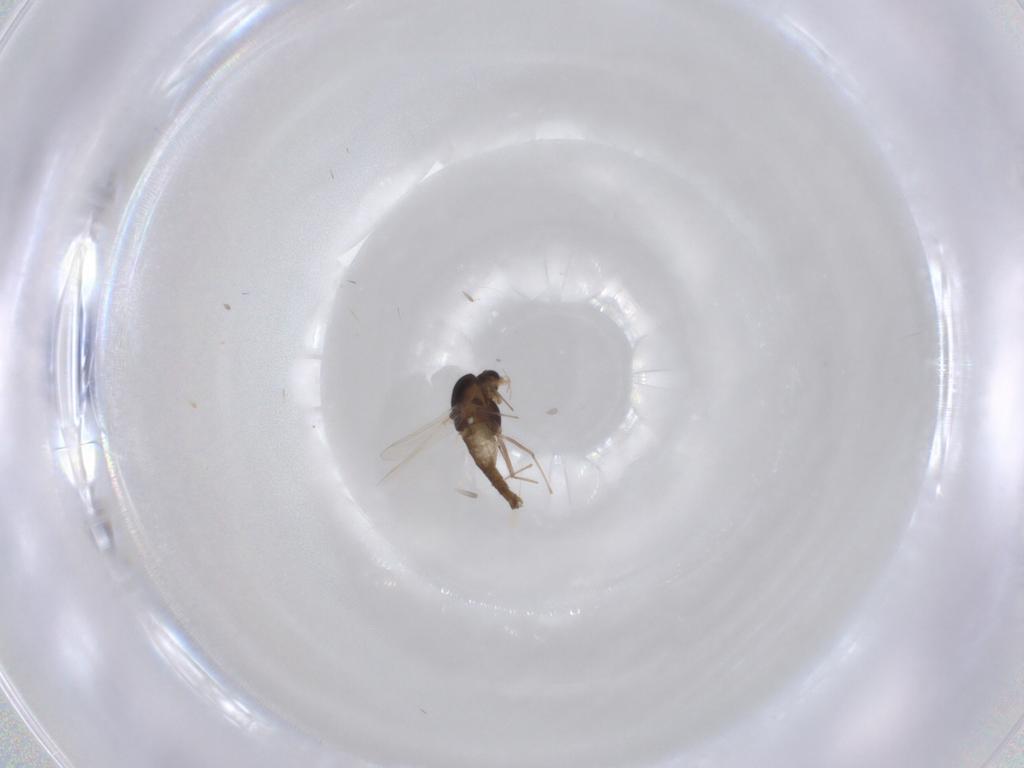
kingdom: Animalia
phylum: Arthropoda
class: Insecta
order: Diptera
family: Chironomidae
